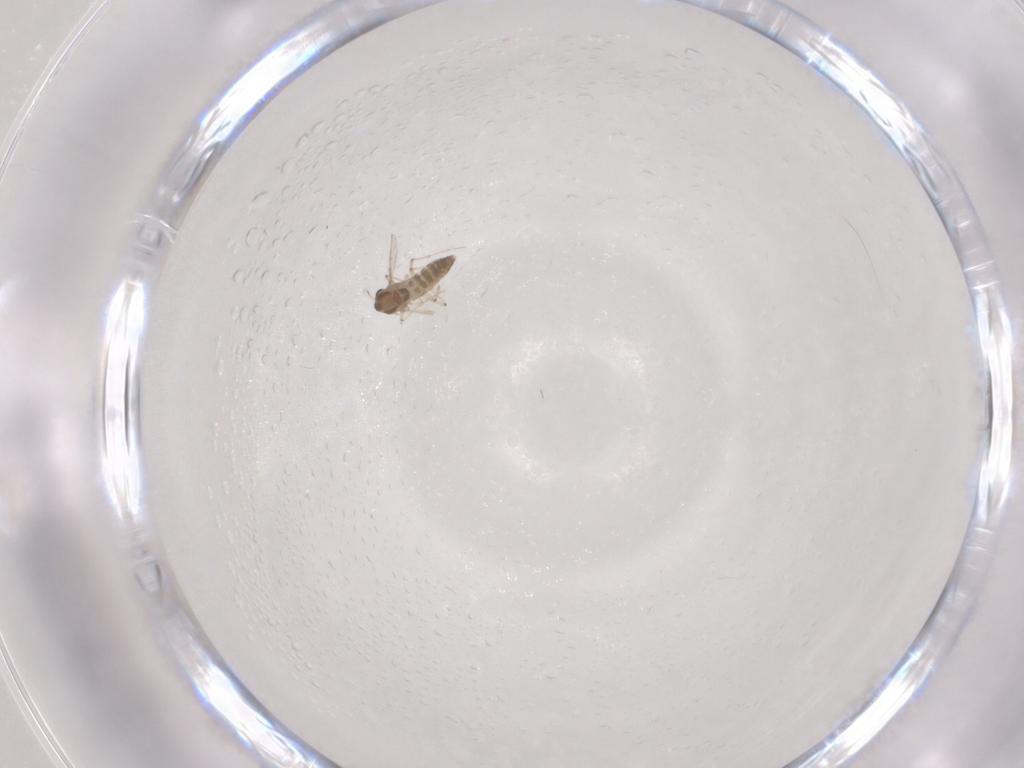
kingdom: Animalia
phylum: Arthropoda
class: Insecta
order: Diptera
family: Chironomidae
